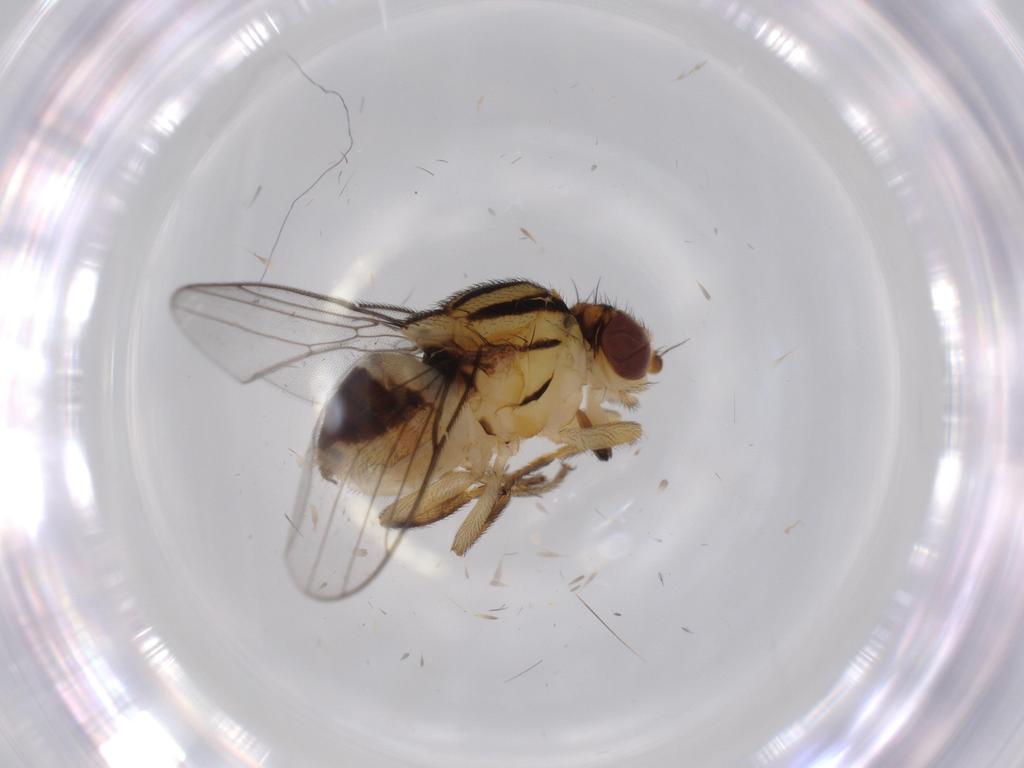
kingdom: Animalia
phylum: Arthropoda
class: Insecta
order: Diptera
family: Chloropidae
